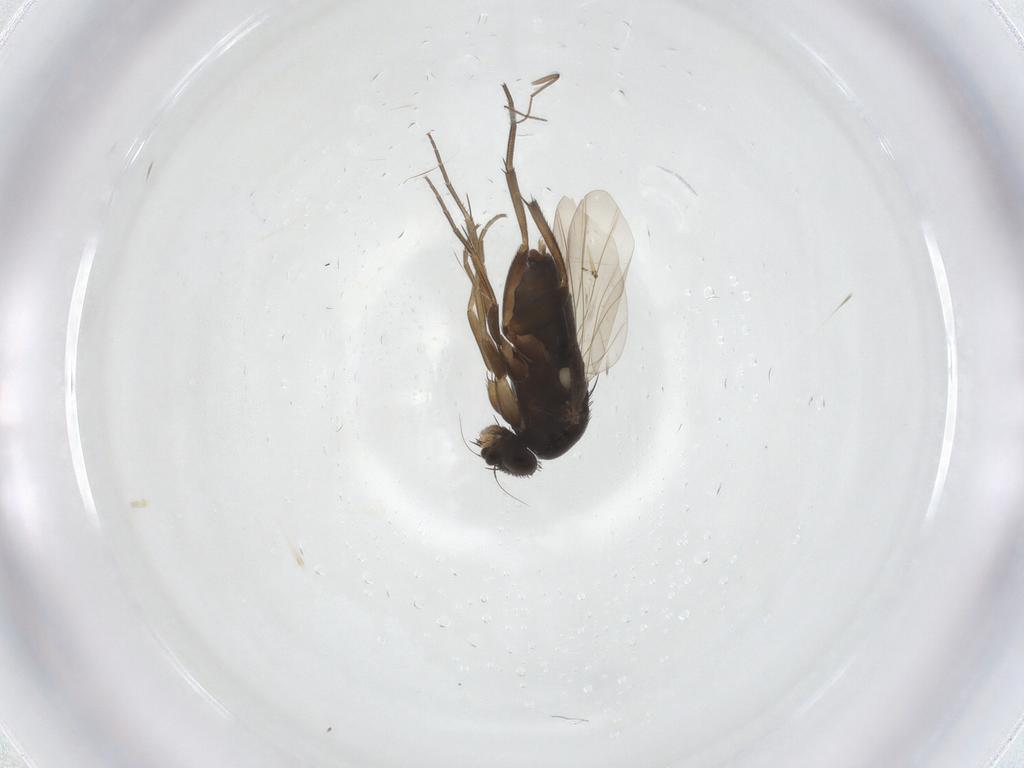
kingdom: Animalia
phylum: Arthropoda
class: Insecta
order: Diptera
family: Phoridae
